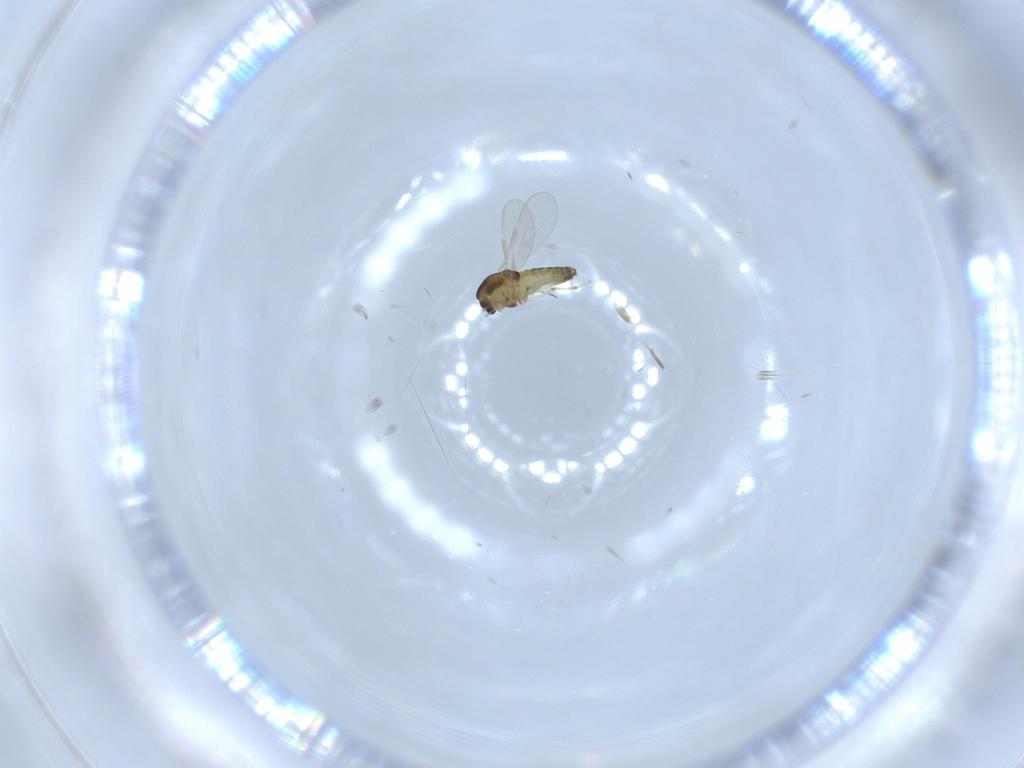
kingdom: Animalia
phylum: Arthropoda
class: Insecta
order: Diptera
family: Chironomidae
